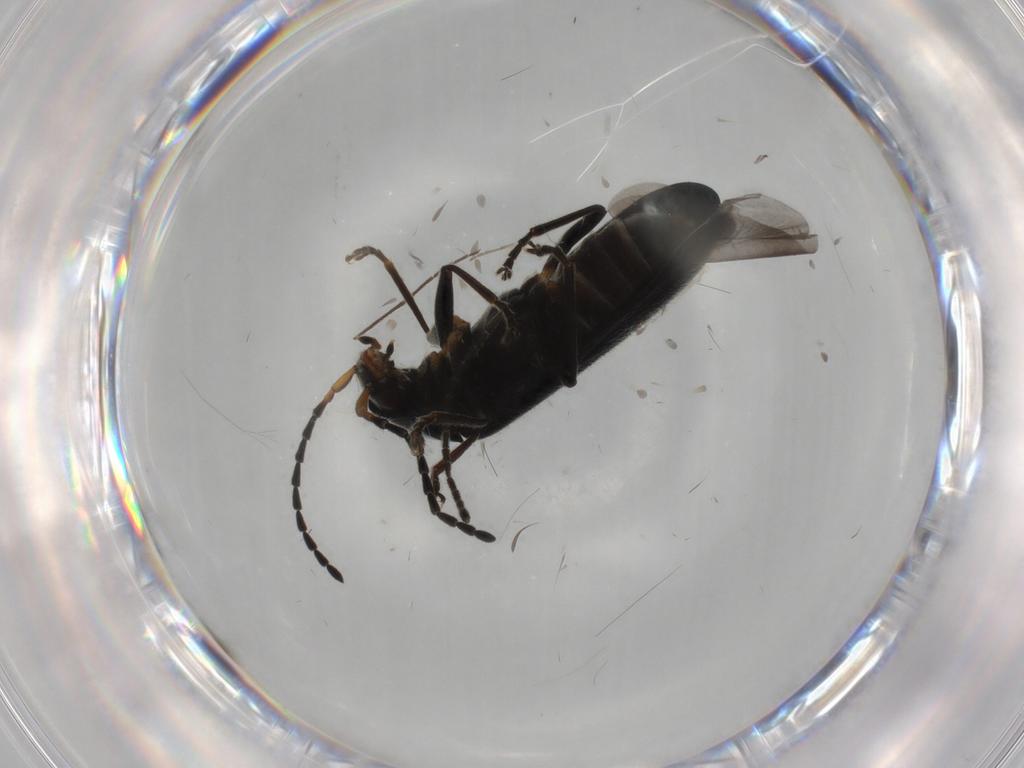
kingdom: Animalia
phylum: Arthropoda
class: Insecta
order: Coleoptera
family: Cantharidae
